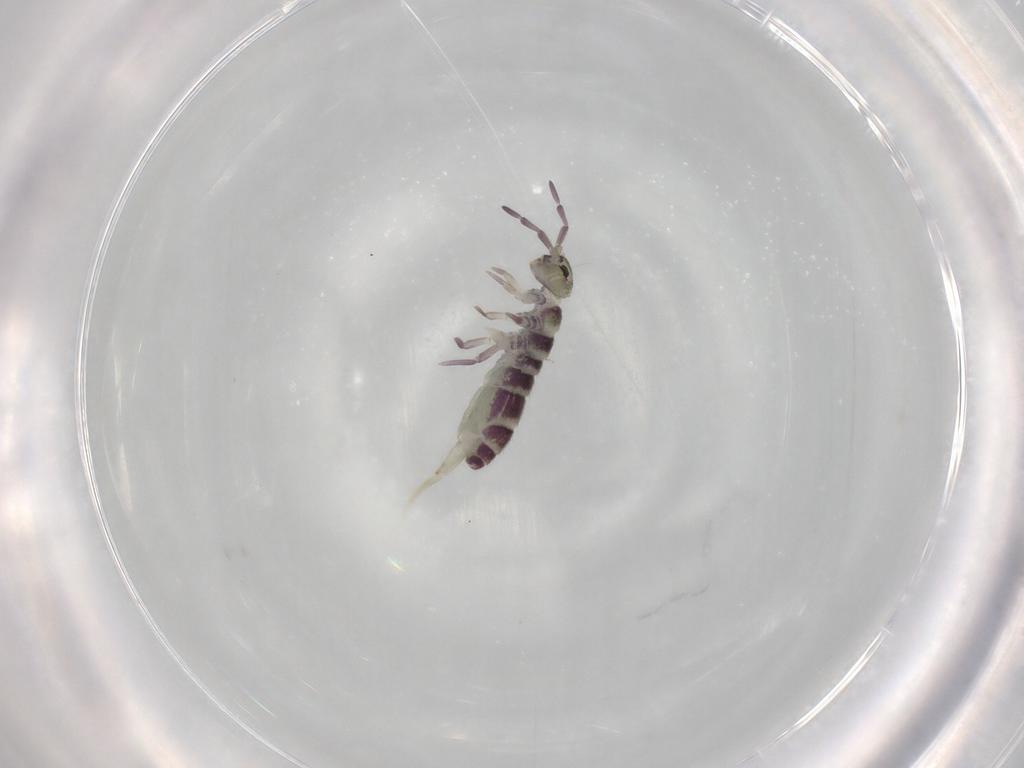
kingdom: Animalia
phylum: Arthropoda
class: Collembola
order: Entomobryomorpha
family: Isotomidae
